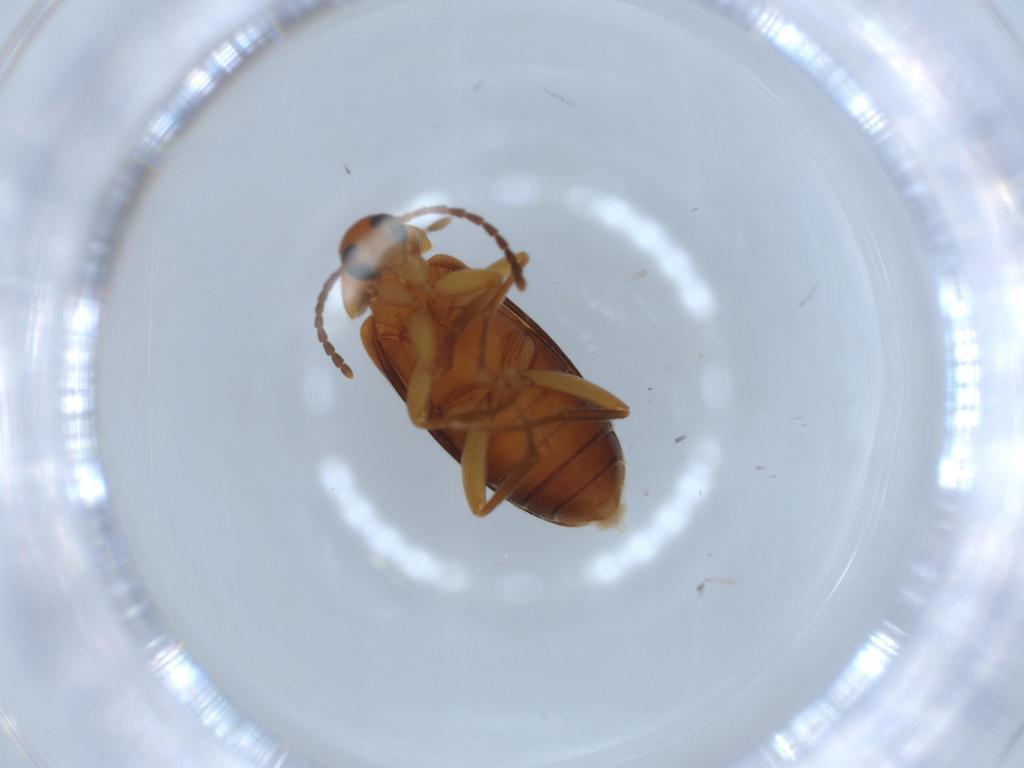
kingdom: Animalia
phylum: Arthropoda
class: Insecta
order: Coleoptera
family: Scraptiidae
